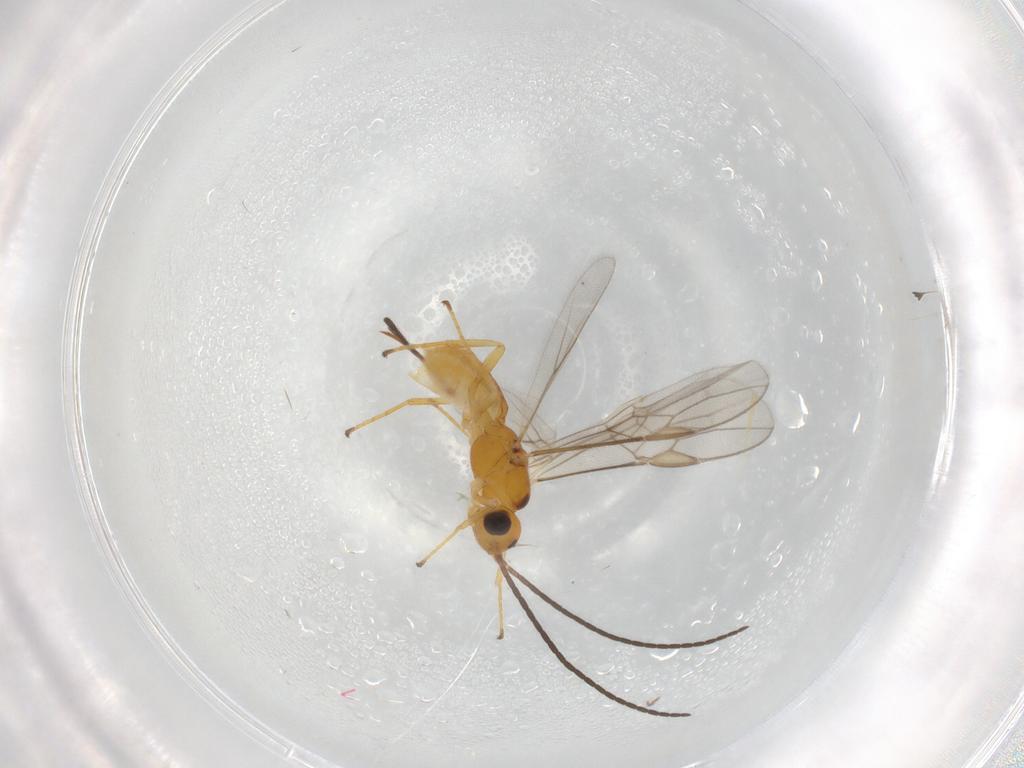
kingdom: Animalia
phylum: Arthropoda
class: Insecta
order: Hymenoptera
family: Braconidae
